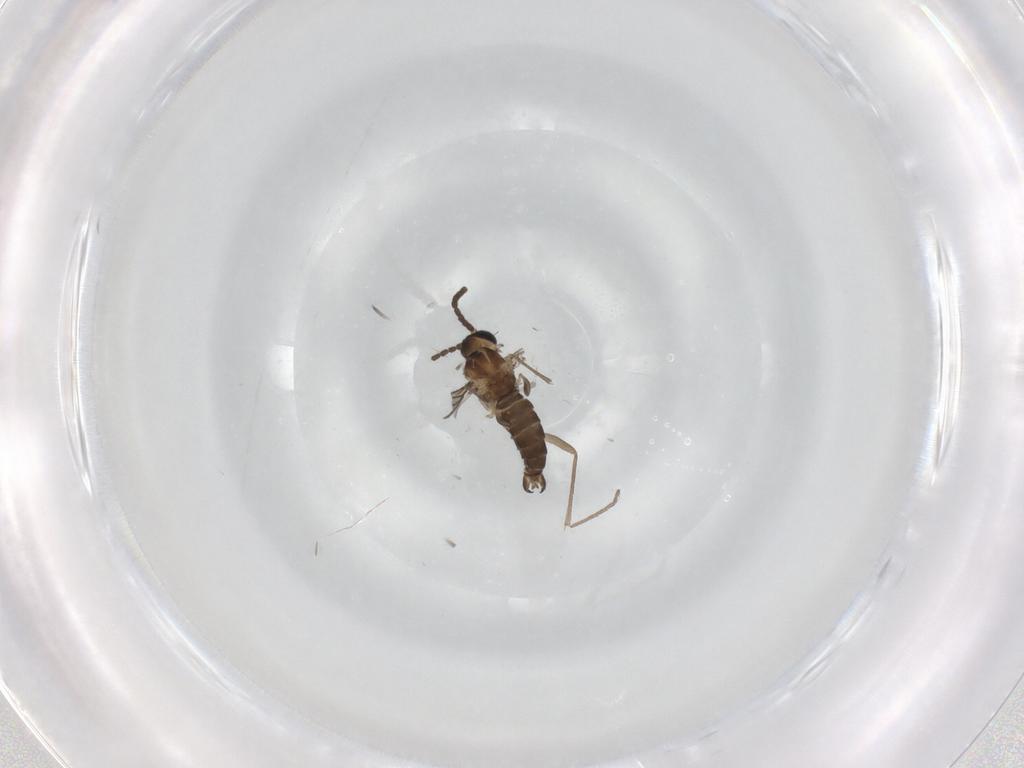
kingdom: Animalia
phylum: Arthropoda
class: Insecta
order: Diptera
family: Sciaridae
